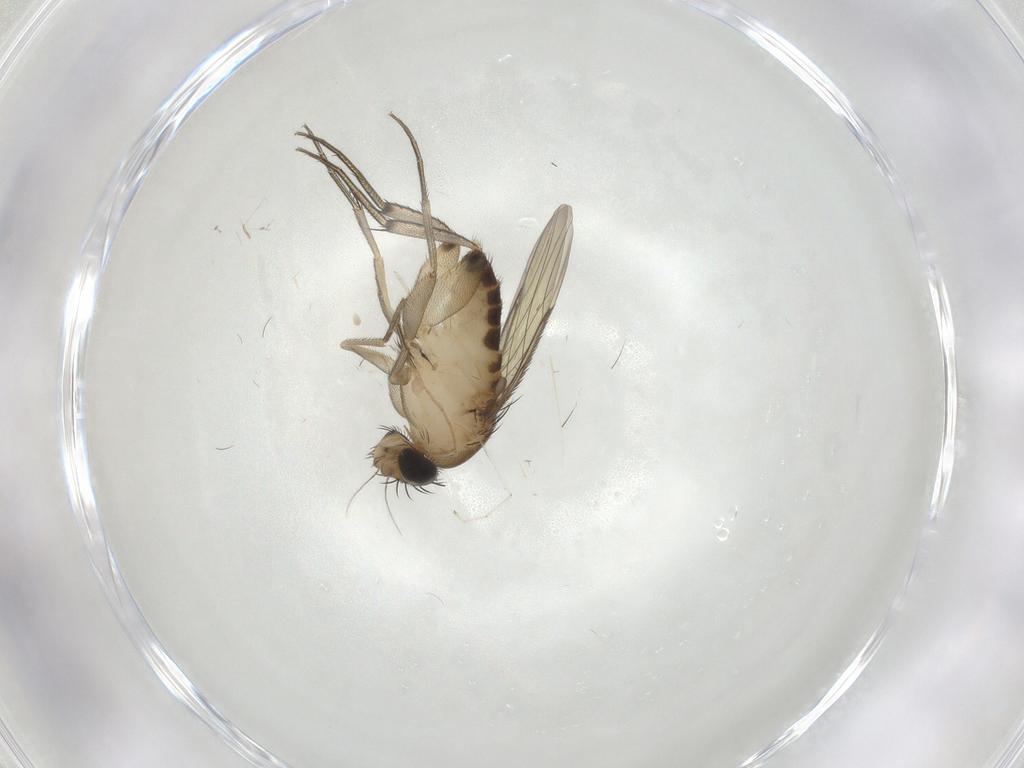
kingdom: Animalia
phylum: Arthropoda
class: Insecta
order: Diptera
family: Phoridae
